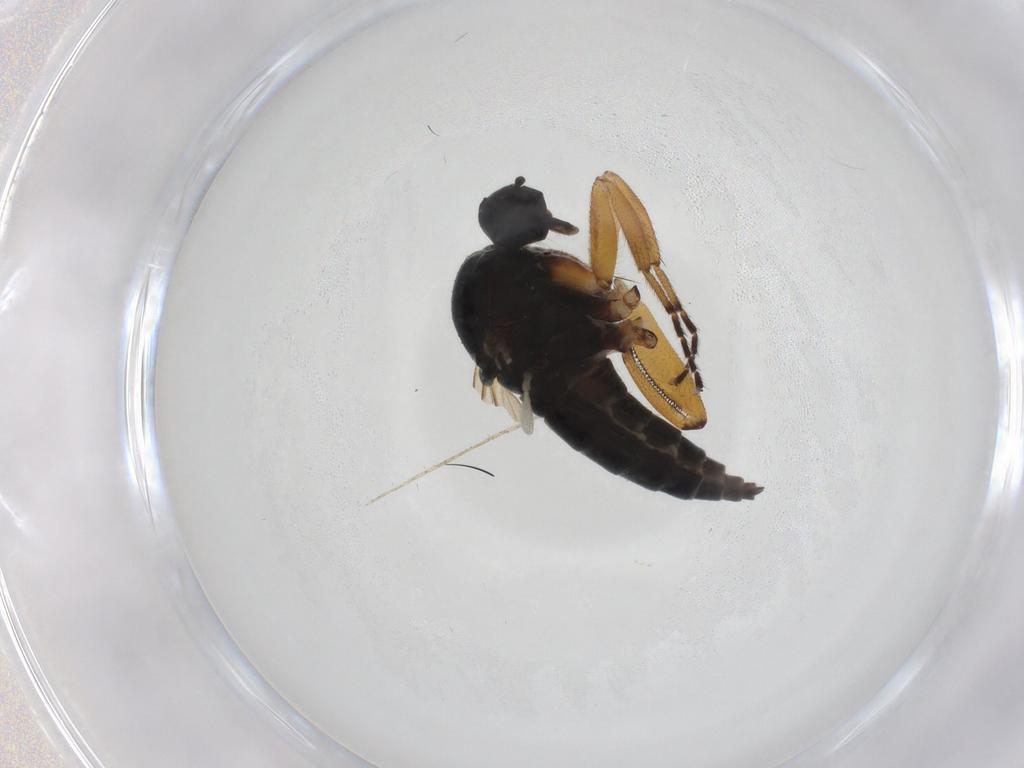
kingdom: Animalia
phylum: Arthropoda
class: Insecta
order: Diptera
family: Hybotidae
